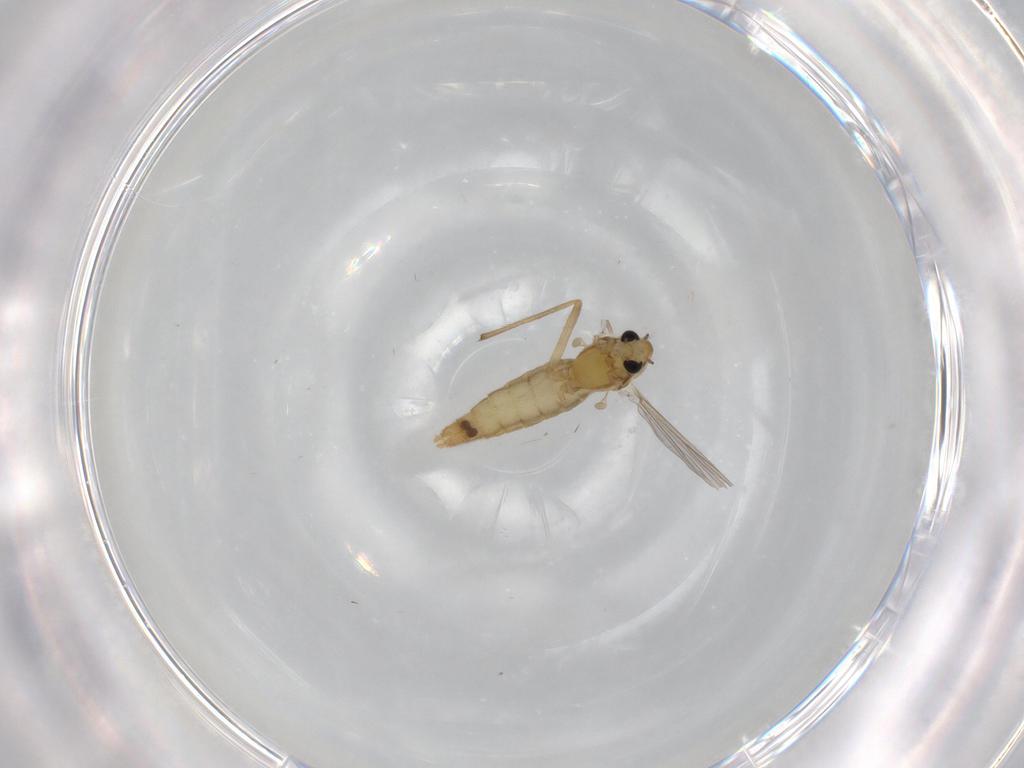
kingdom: Animalia
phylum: Arthropoda
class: Insecta
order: Diptera
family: Chironomidae
